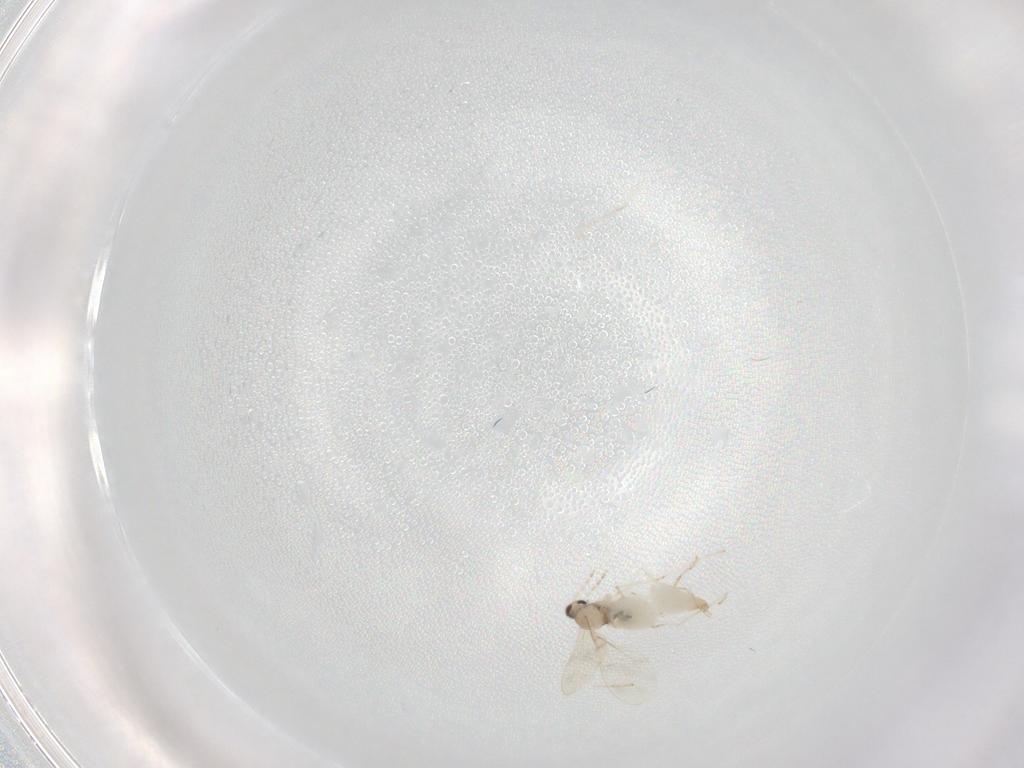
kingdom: Animalia
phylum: Arthropoda
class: Insecta
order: Diptera
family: Cecidomyiidae
